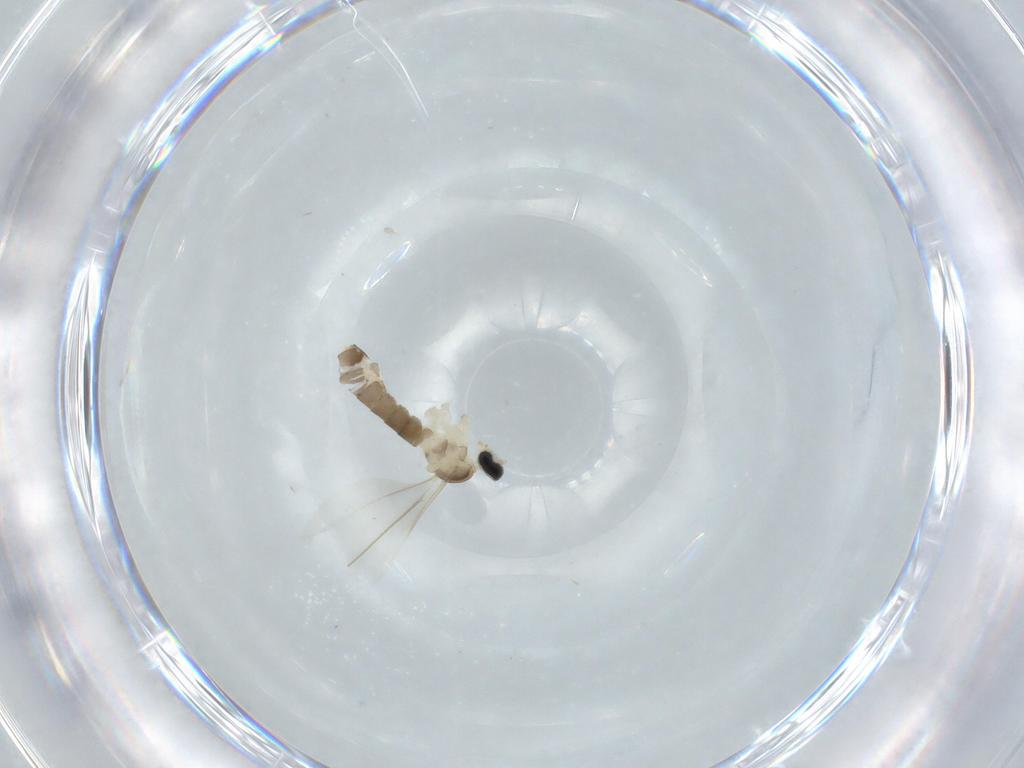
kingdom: Animalia
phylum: Arthropoda
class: Insecta
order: Diptera
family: Cecidomyiidae
